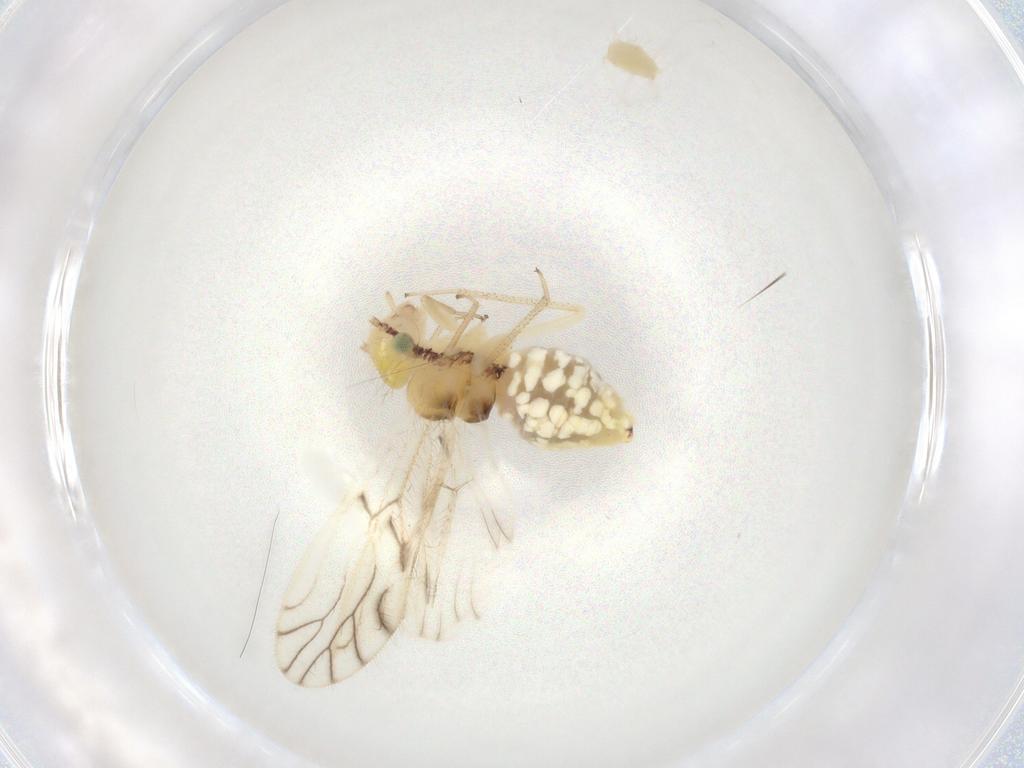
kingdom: Animalia
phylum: Arthropoda
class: Insecta
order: Psocodea
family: Philotarsidae
